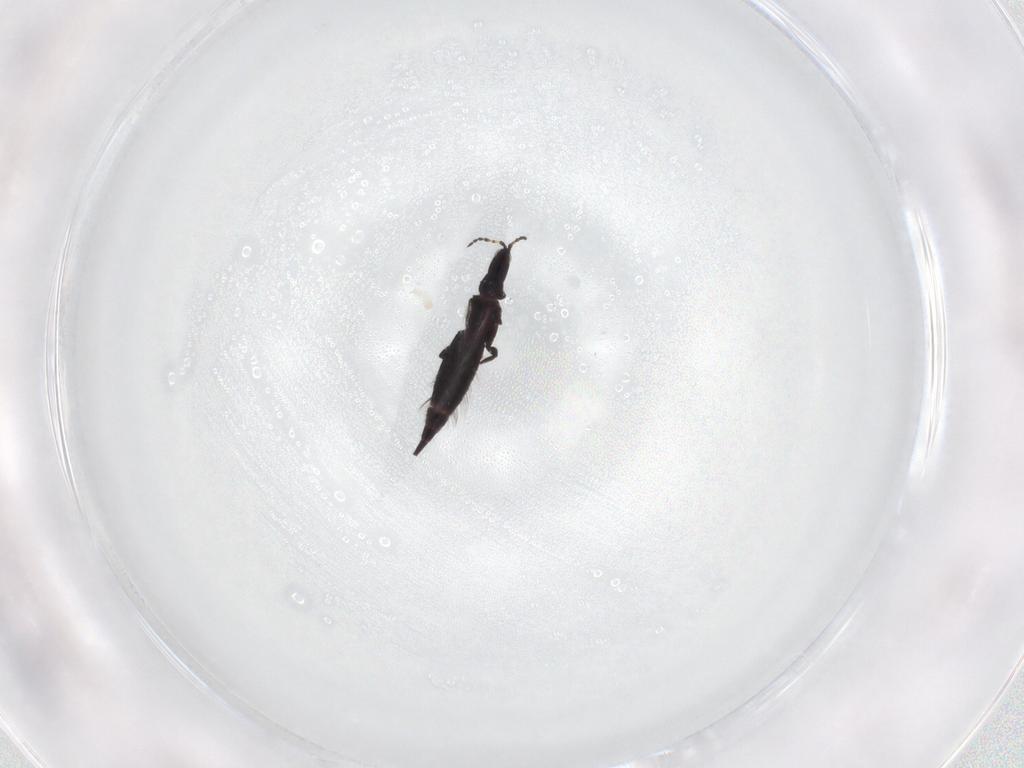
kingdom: Animalia
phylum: Arthropoda
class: Insecta
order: Thysanoptera
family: Phlaeothripidae
